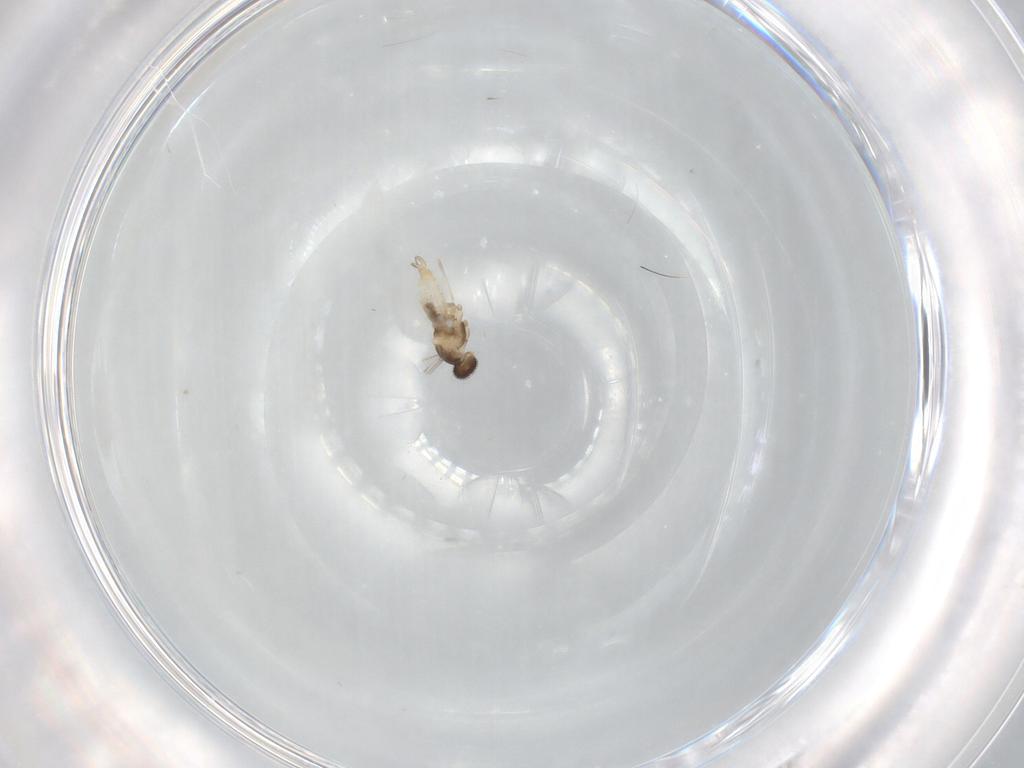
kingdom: Animalia
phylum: Arthropoda
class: Insecta
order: Diptera
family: Cecidomyiidae
